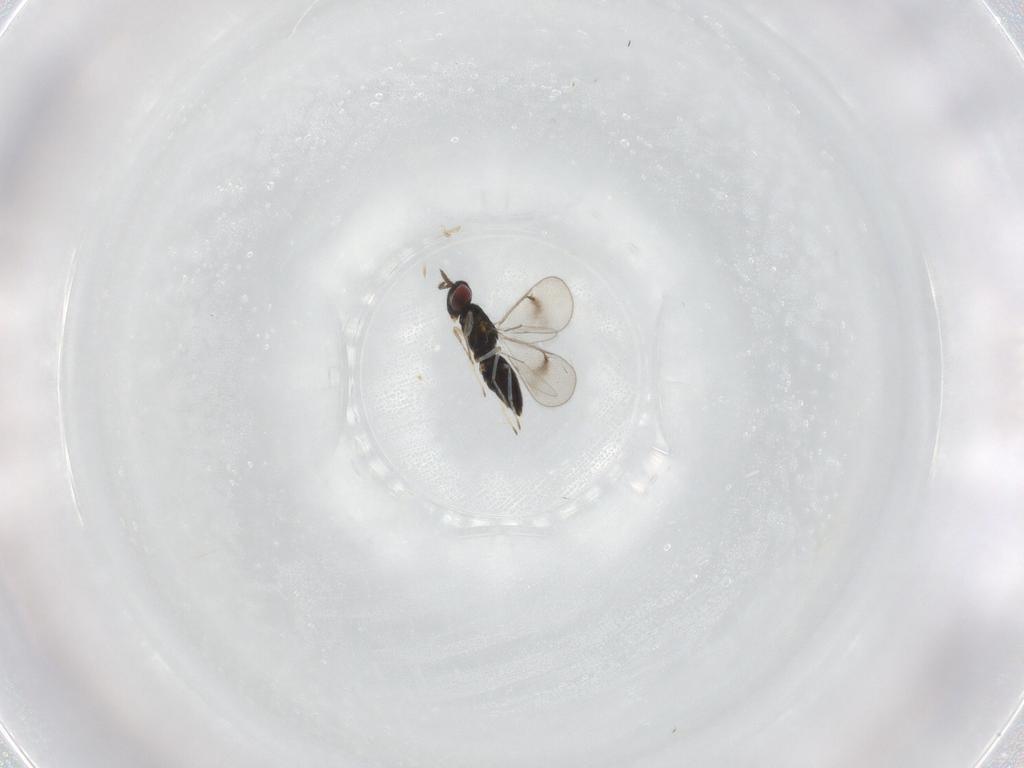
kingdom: Animalia
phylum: Arthropoda
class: Insecta
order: Hymenoptera
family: Eulophidae
